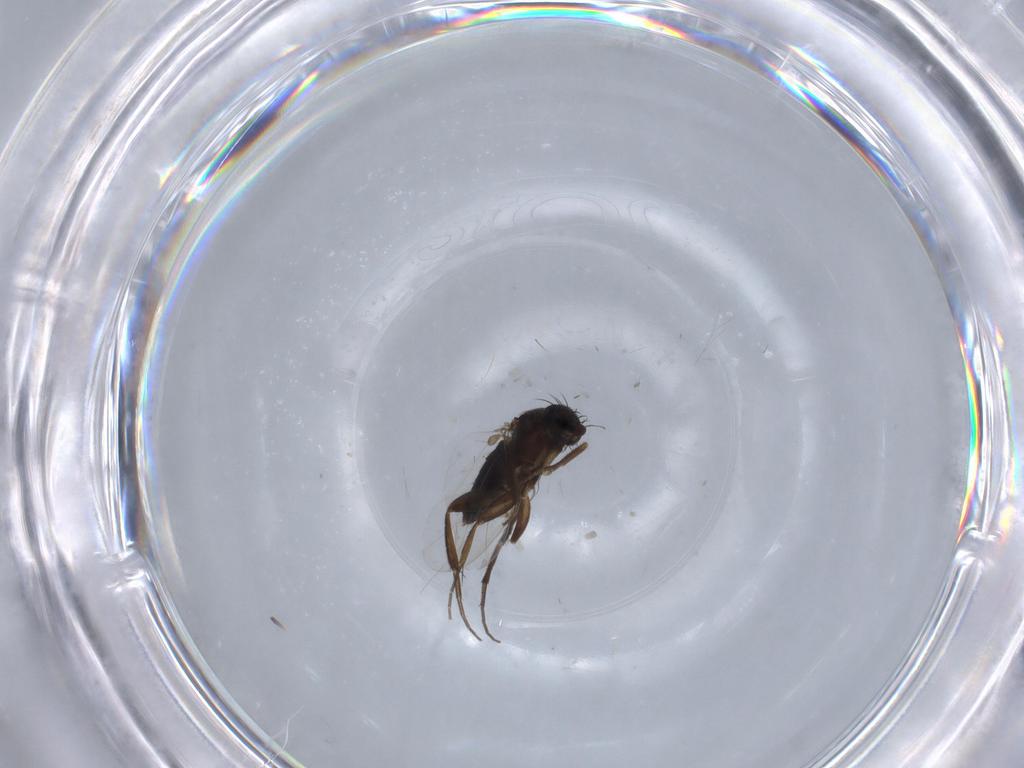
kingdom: Animalia
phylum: Arthropoda
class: Insecta
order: Diptera
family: Phoridae
